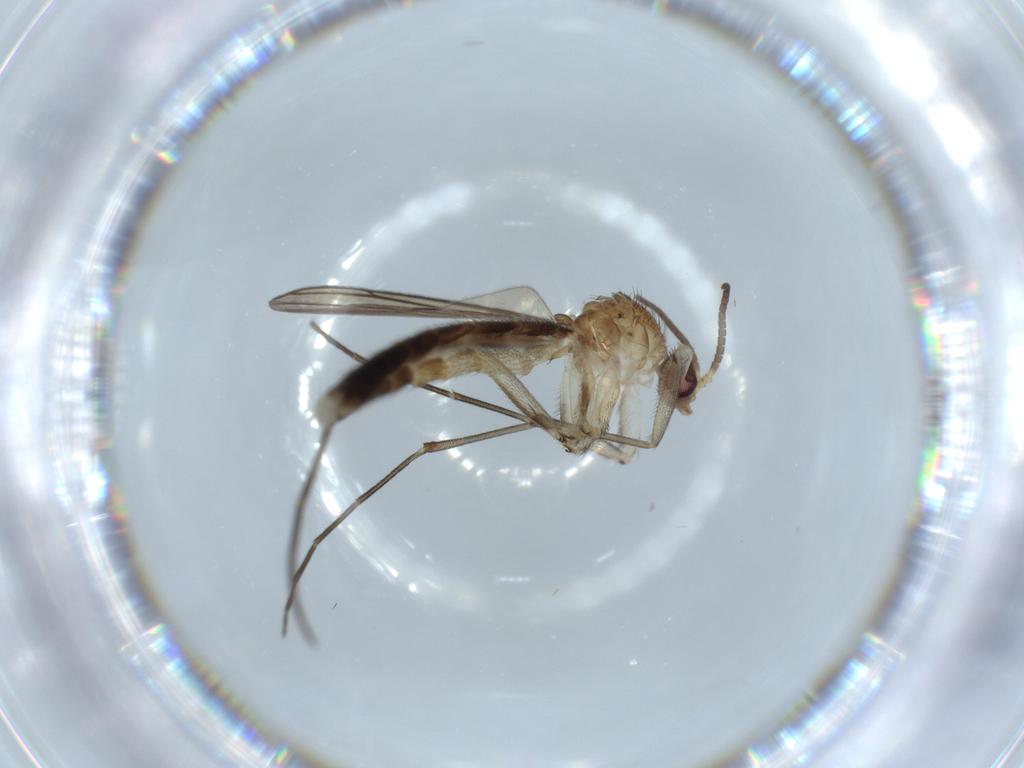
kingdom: Animalia
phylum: Arthropoda
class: Insecta
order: Diptera
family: Keroplatidae
